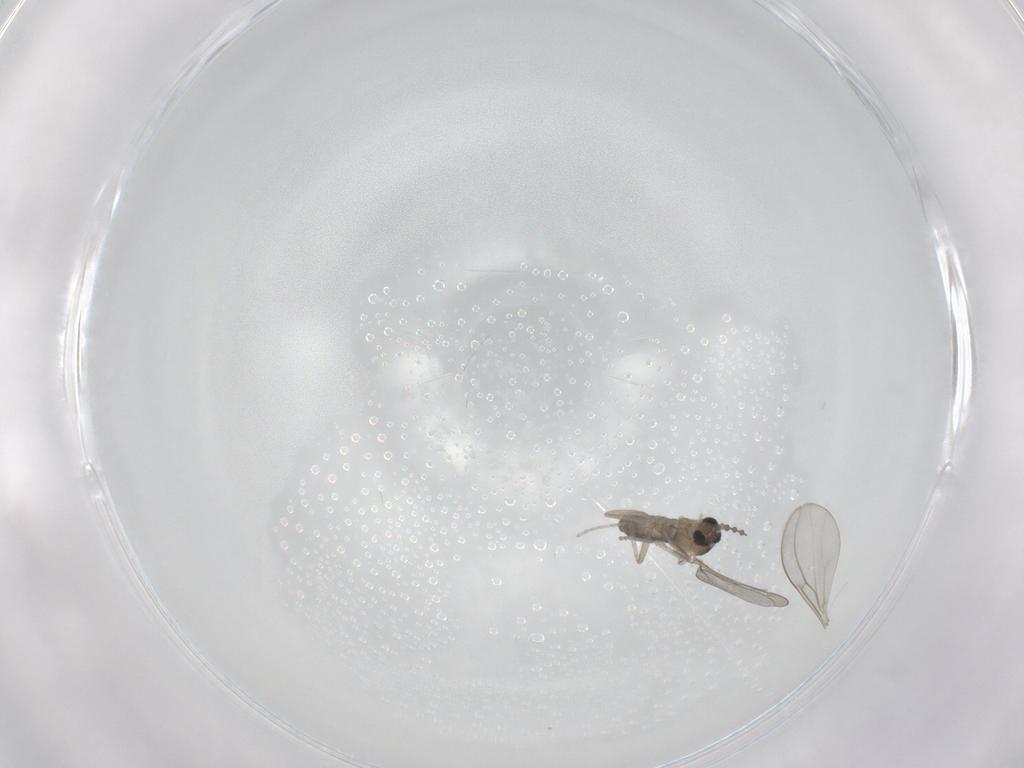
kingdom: Animalia
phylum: Arthropoda
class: Insecta
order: Diptera
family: Cecidomyiidae
